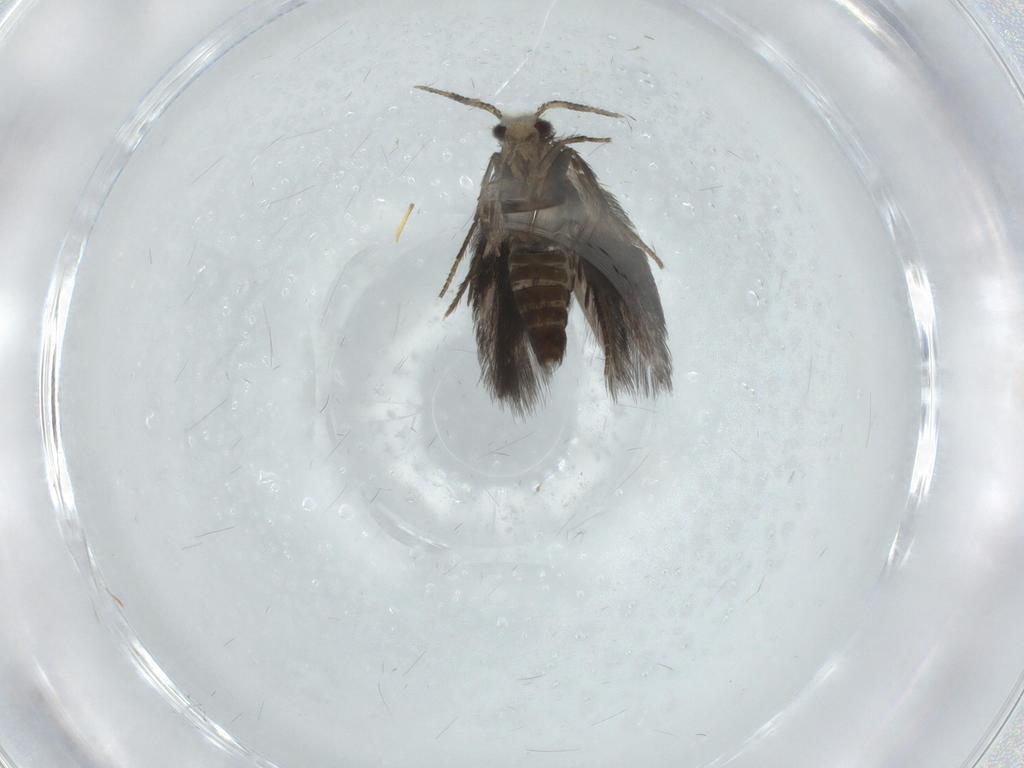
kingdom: Animalia
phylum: Arthropoda
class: Insecta
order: Trichoptera
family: Hydroptilidae
